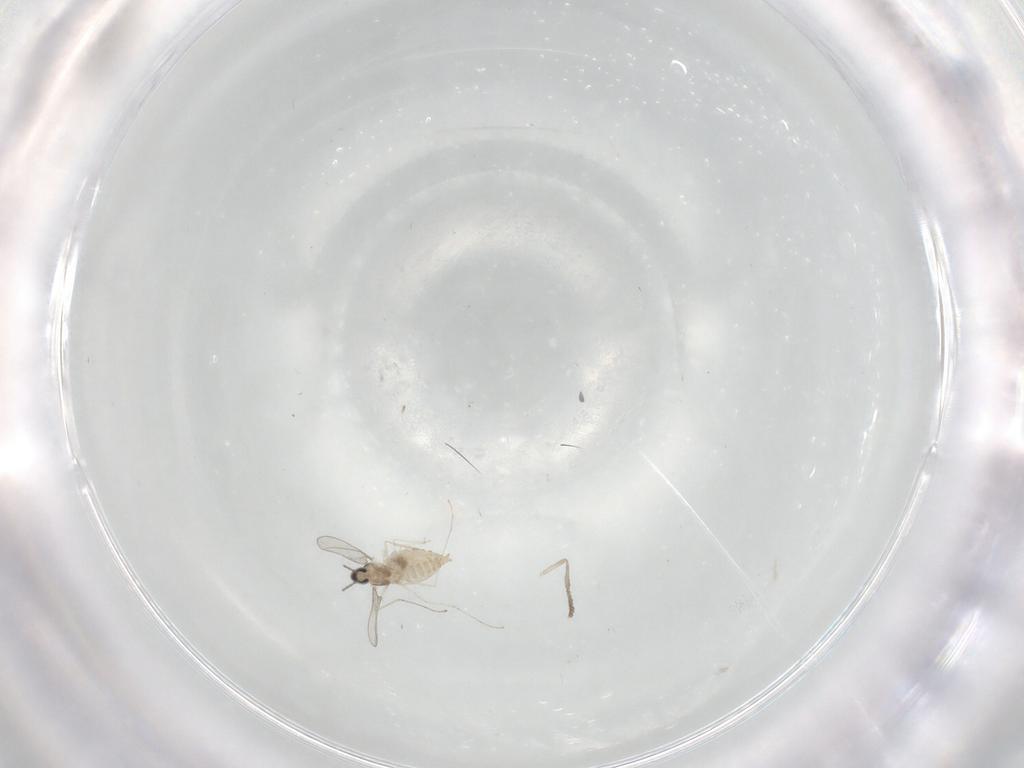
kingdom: Animalia
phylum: Arthropoda
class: Insecta
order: Diptera
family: Cecidomyiidae
